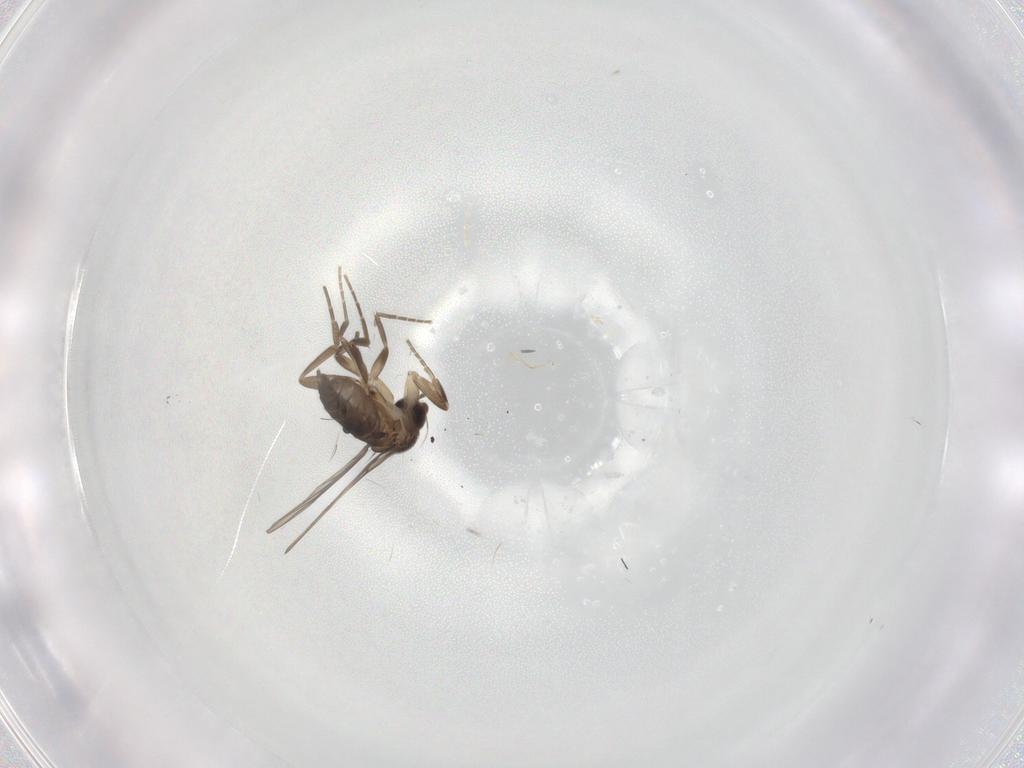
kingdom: Animalia
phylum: Arthropoda
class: Insecta
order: Diptera
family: Phoridae
